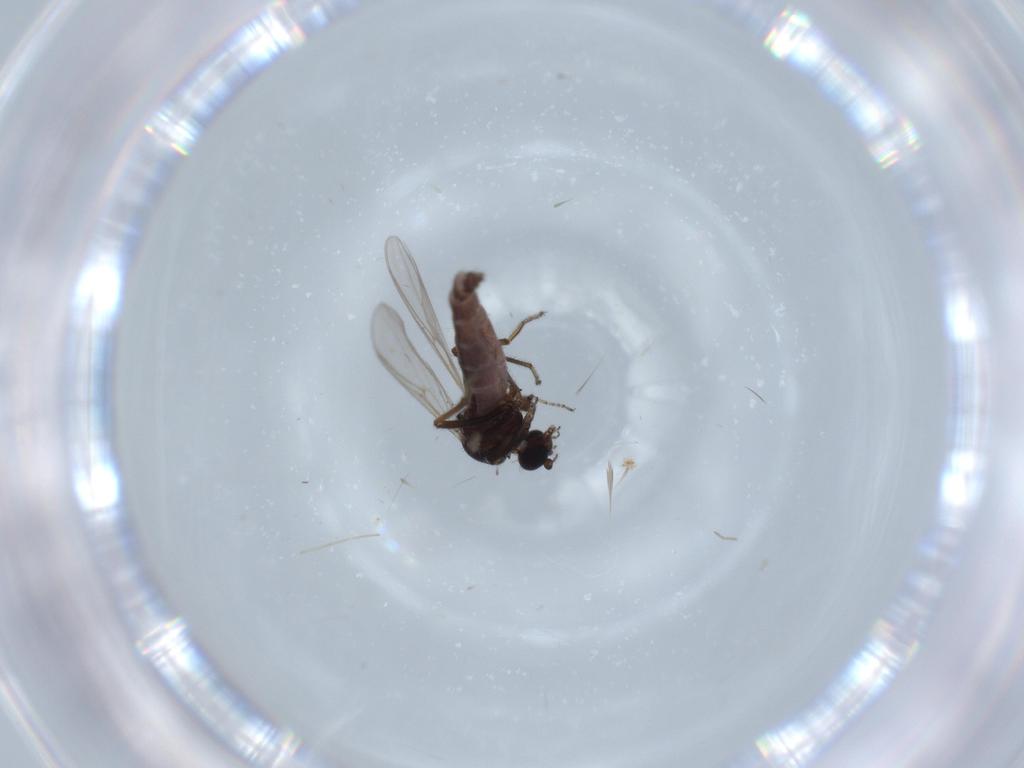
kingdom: Animalia
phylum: Arthropoda
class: Insecta
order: Diptera
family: Ceratopogonidae
